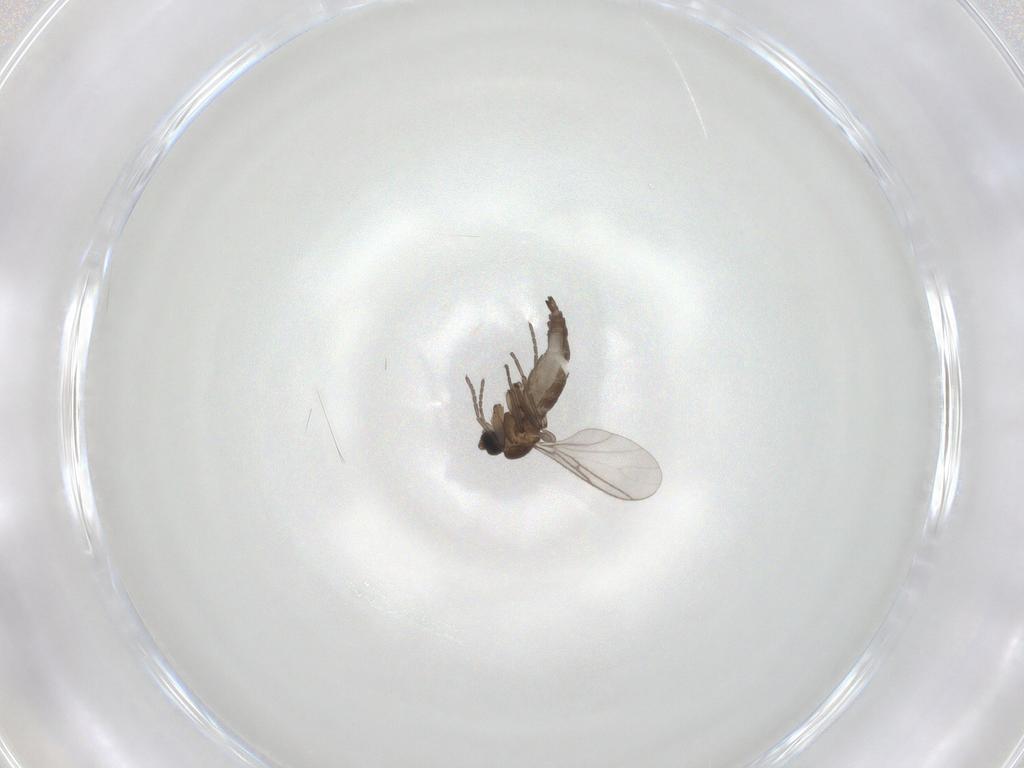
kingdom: Animalia
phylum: Arthropoda
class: Insecta
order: Diptera
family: Sciaridae
